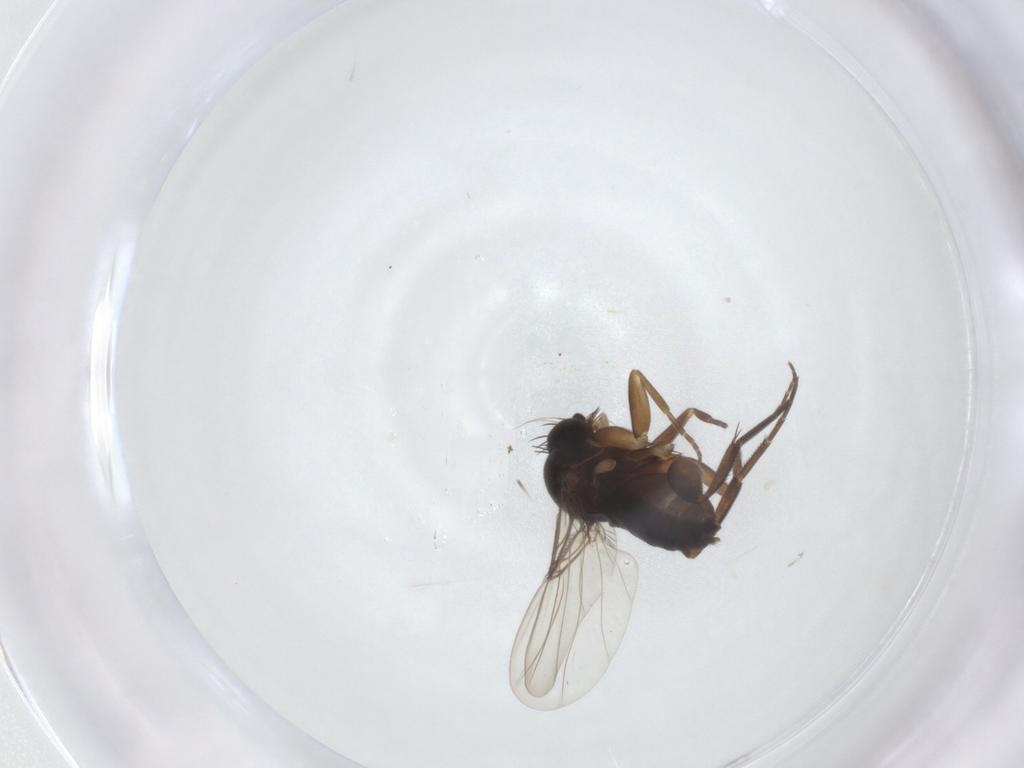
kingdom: Animalia
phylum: Arthropoda
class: Insecta
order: Diptera
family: Phoridae
